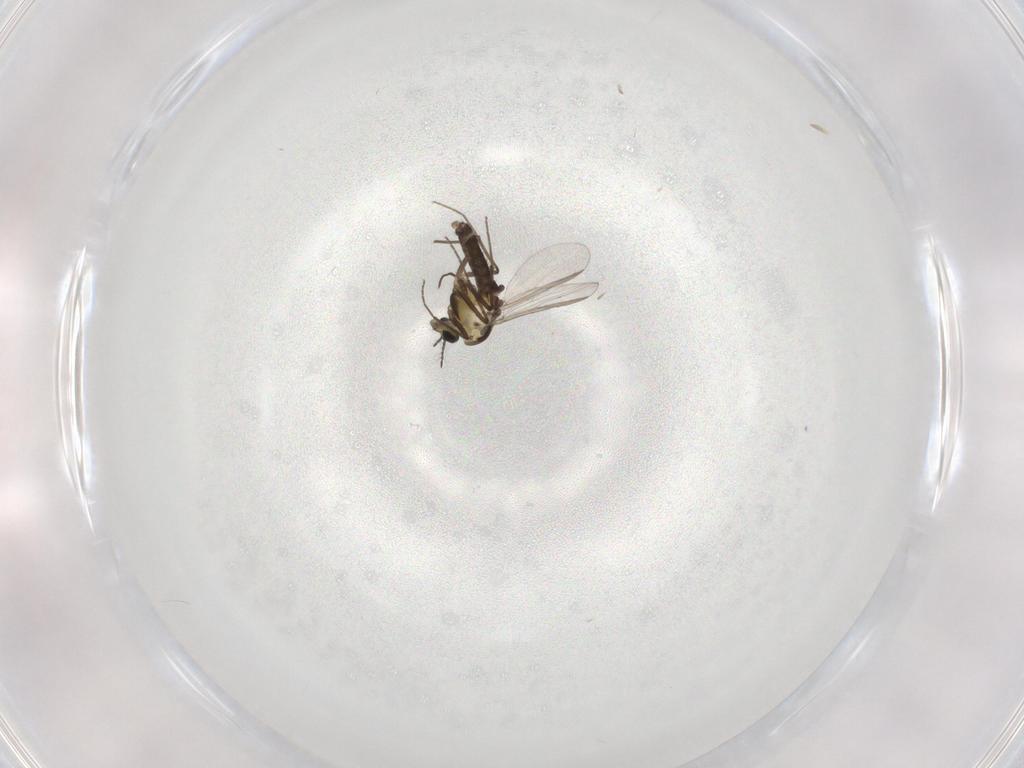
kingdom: Animalia
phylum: Arthropoda
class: Insecta
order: Diptera
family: Chironomidae
